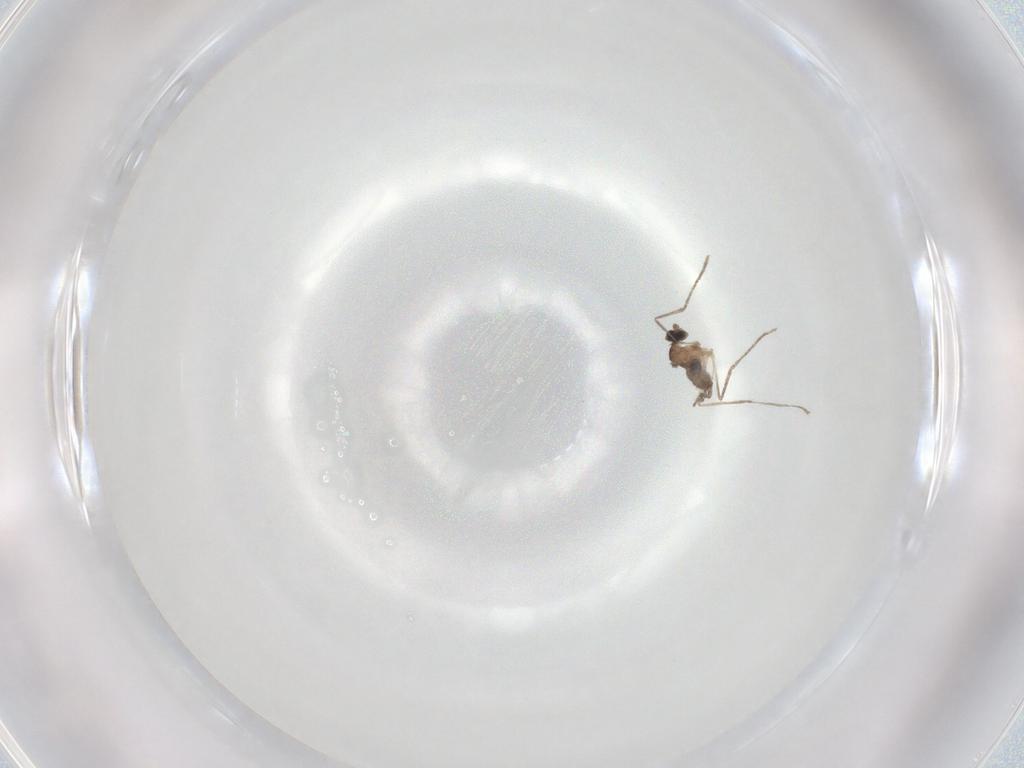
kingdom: Animalia
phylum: Arthropoda
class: Insecta
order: Diptera
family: Cecidomyiidae
